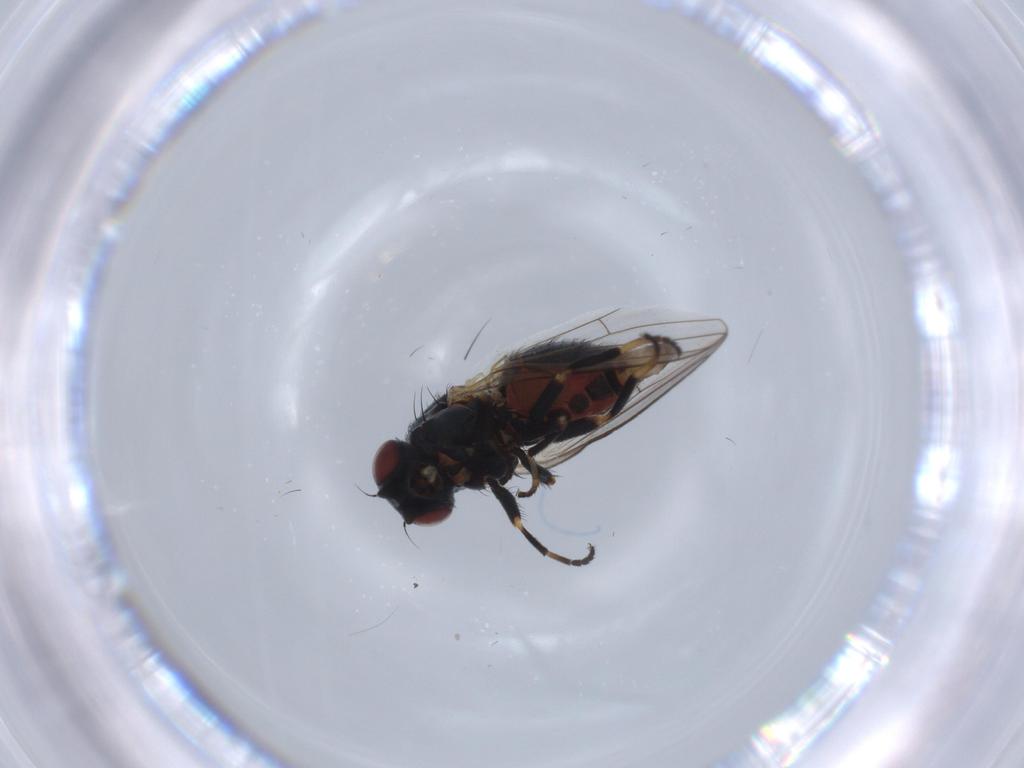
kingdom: Animalia
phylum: Arthropoda
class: Insecta
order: Diptera
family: Chamaemyiidae
